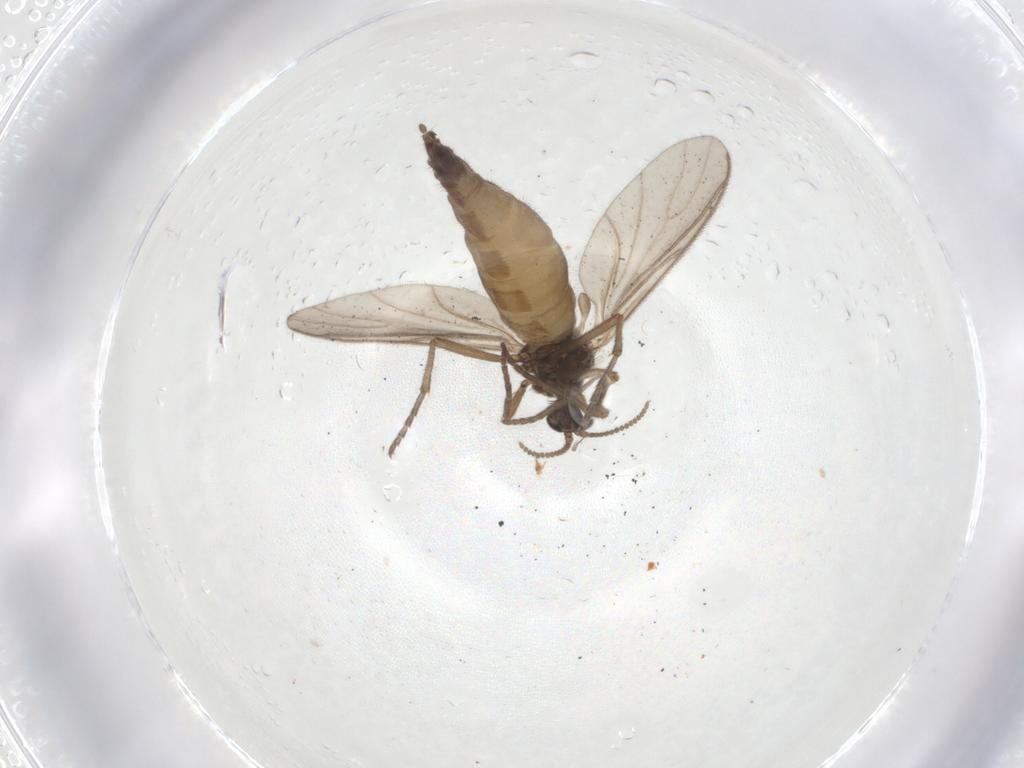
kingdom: Animalia
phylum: Arthropoda
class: Insecta
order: Diptera
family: Sciaridae
